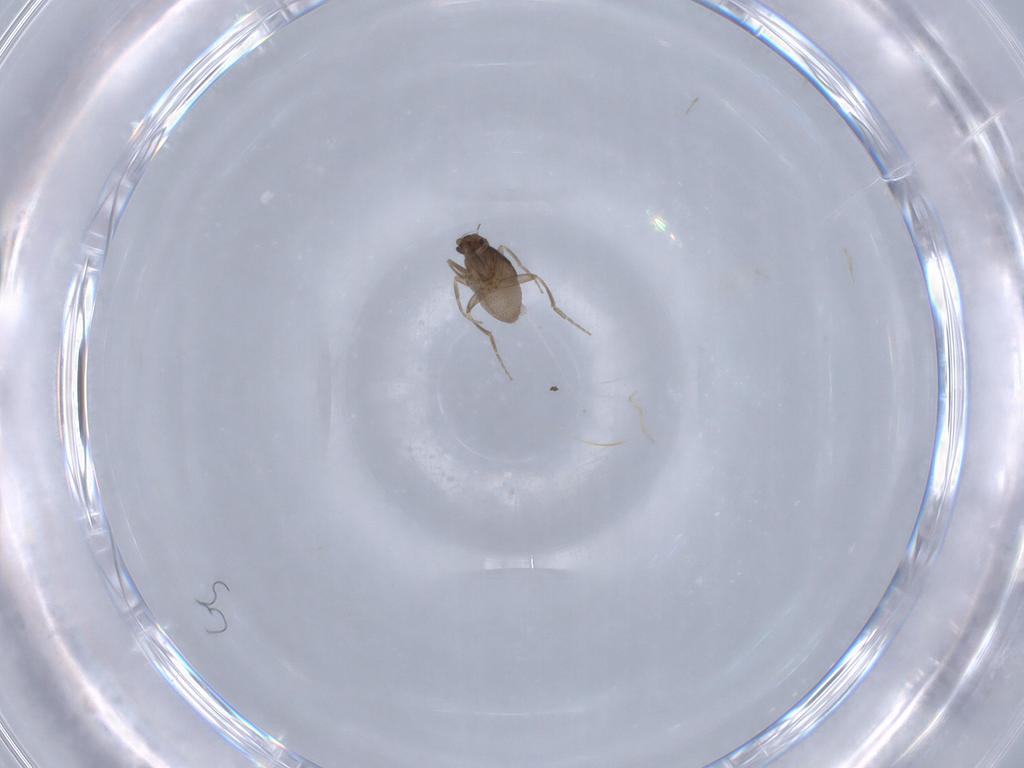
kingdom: Animalia
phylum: Arthropoda
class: Insecta
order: Diptera
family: Phoridae
